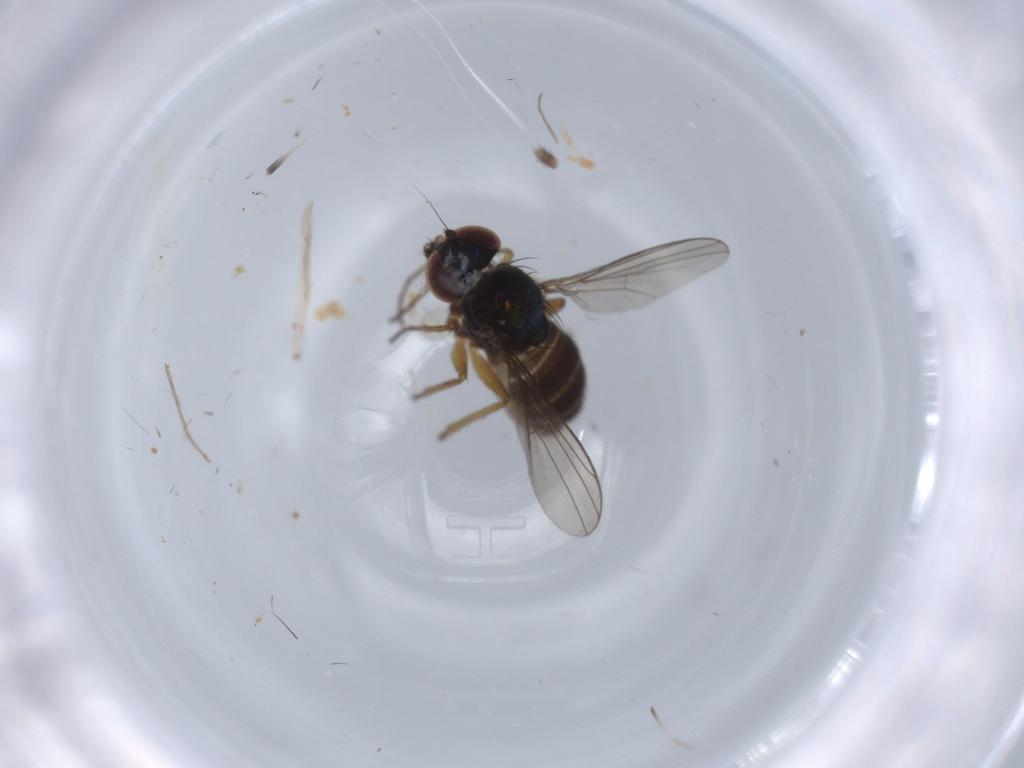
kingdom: Animalia
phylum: Arthropoda
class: Insecta
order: Diptera
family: Dolichopodidae
